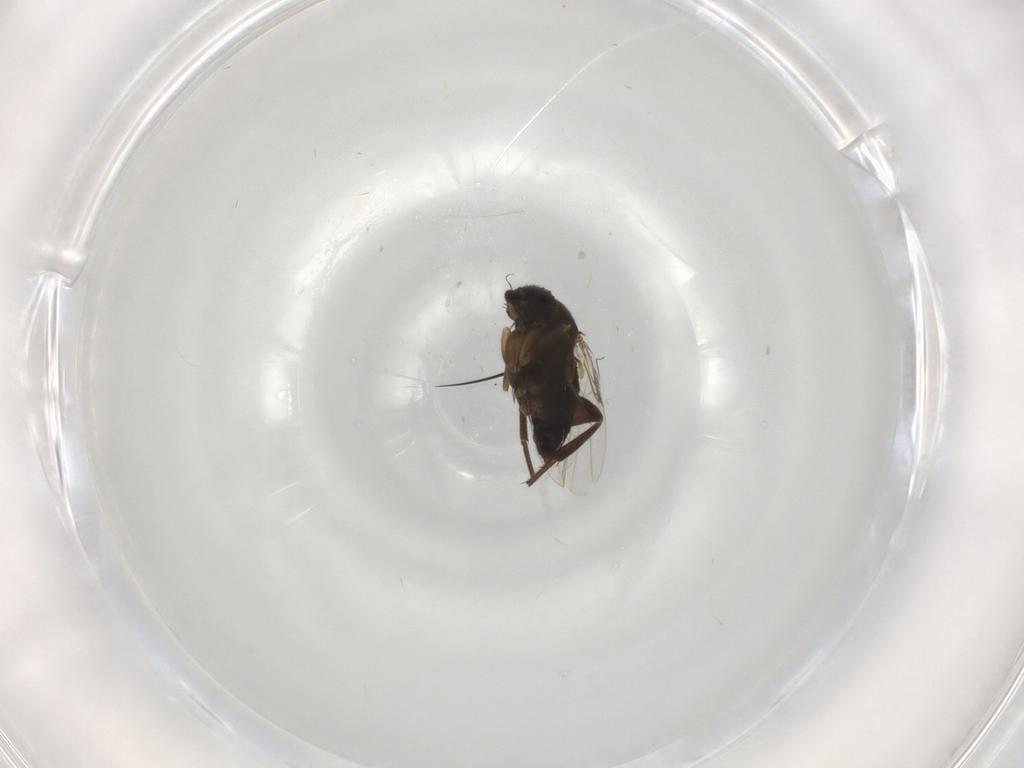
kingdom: Animalia
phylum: Arthropoda
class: Insecta
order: Diptera
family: Phoridae
